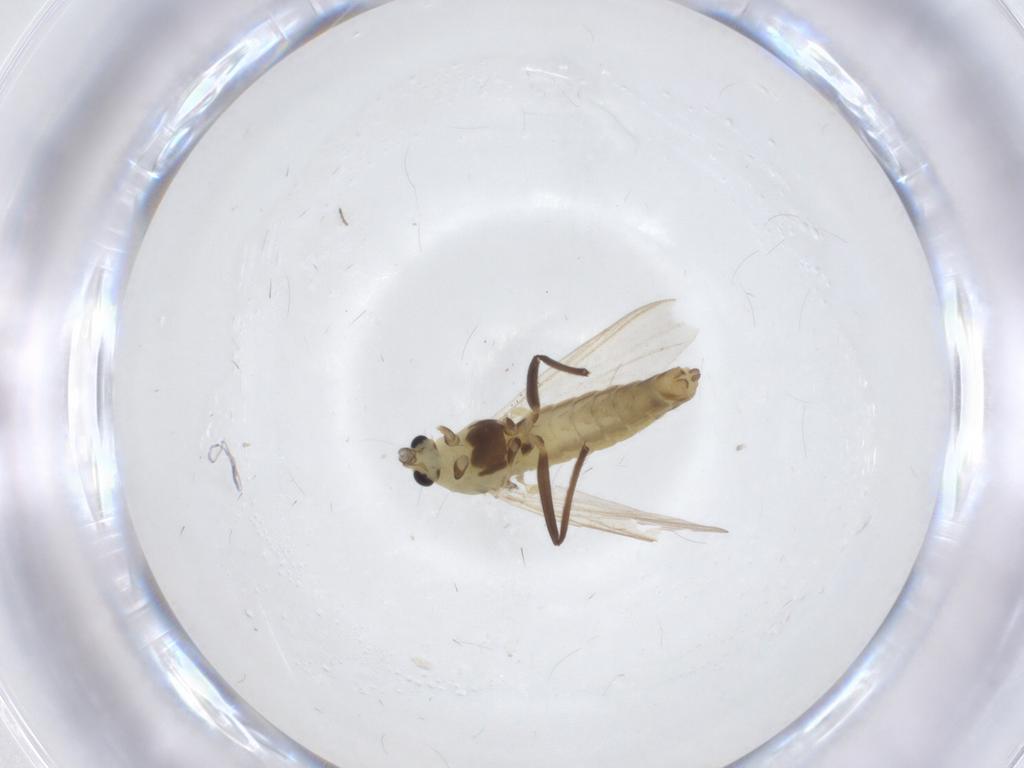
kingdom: Animalia
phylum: Arthropoda
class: Insecta
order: Diptera
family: Chironomidae
